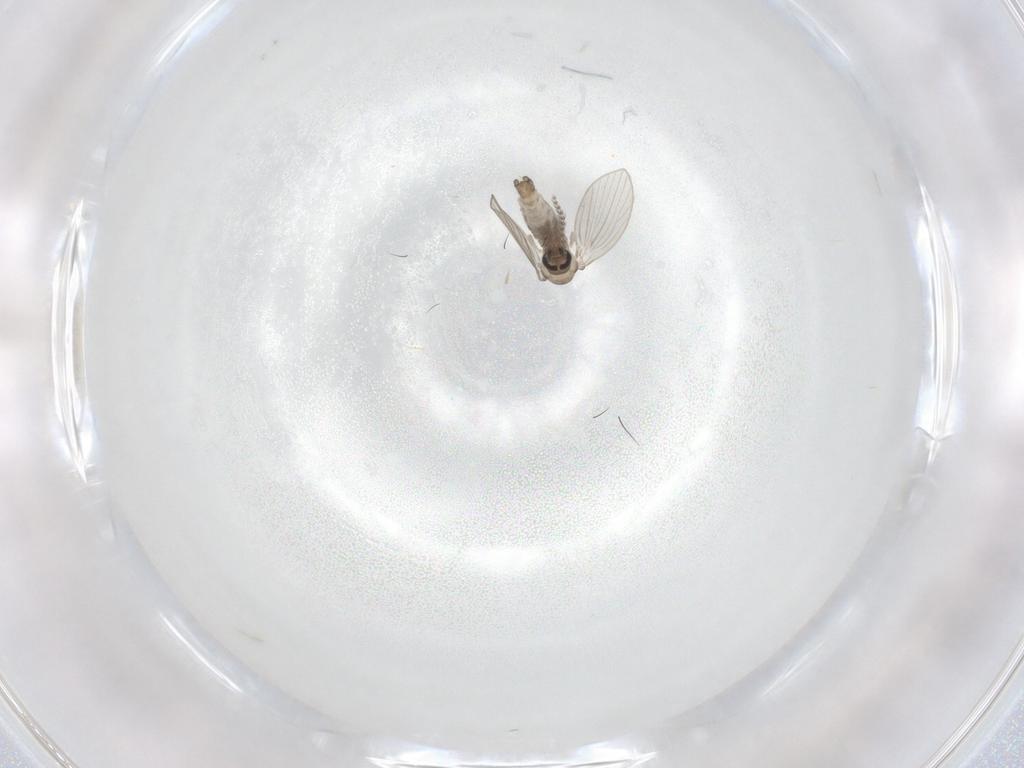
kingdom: Animalia
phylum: Arthropoda
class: Insecta
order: Diptera
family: Psychodidae
